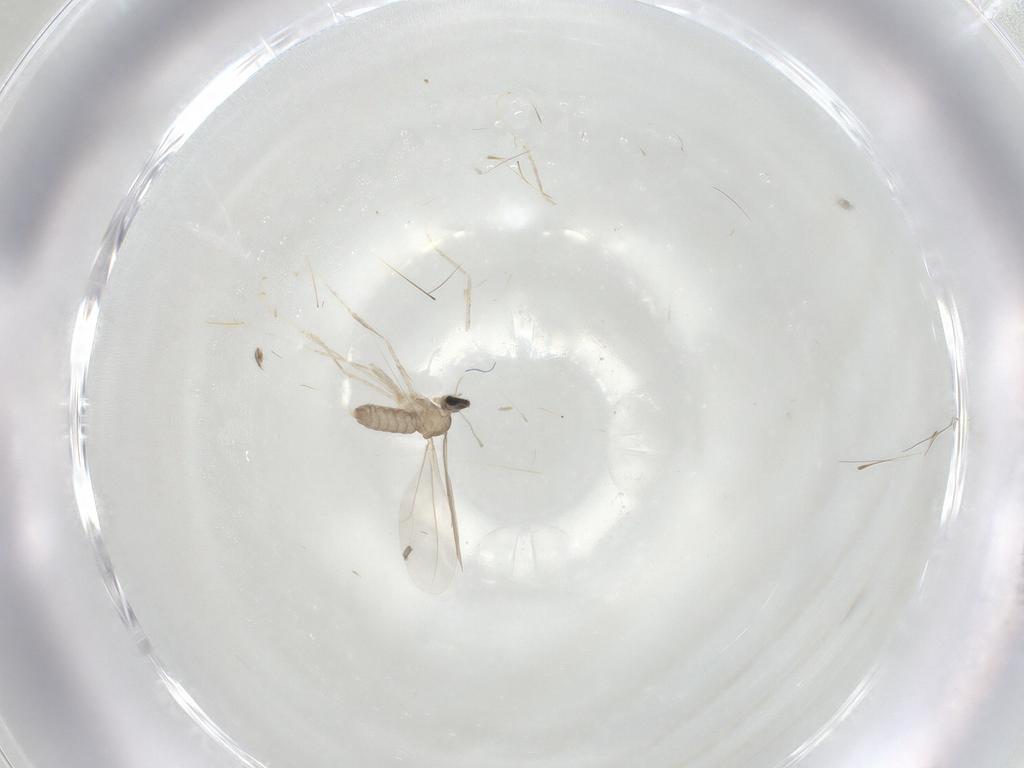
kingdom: Animalia
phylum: Arthropoda
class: Insecta
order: Diptera
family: Cecidomyiidae
